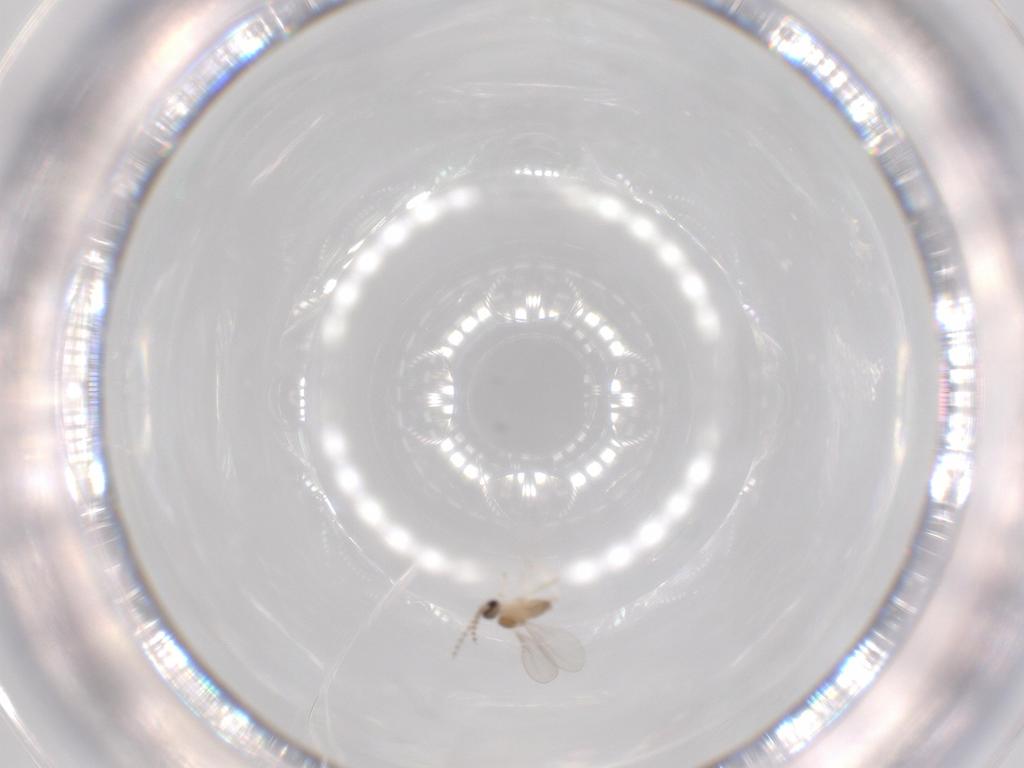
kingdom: Animalia
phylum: Arthropoda
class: Insecta
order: Diptera
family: Cecidomyiidae
